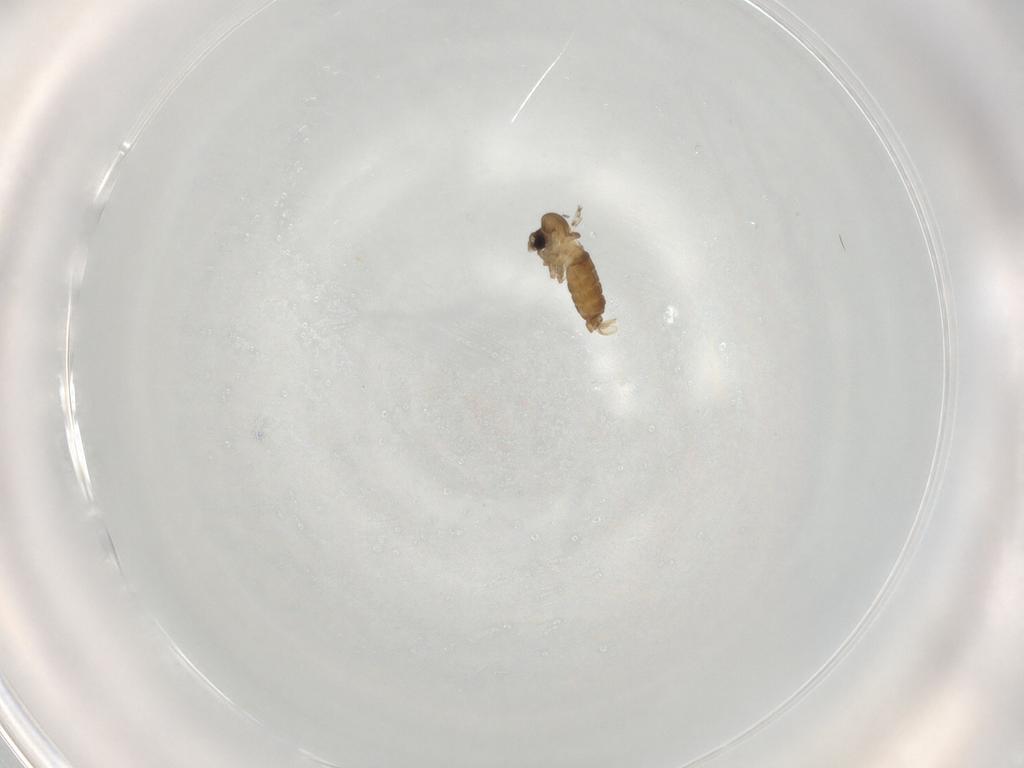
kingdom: Animalia
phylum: Arthropoda
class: Insecta
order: Diptera
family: Psychodidae
